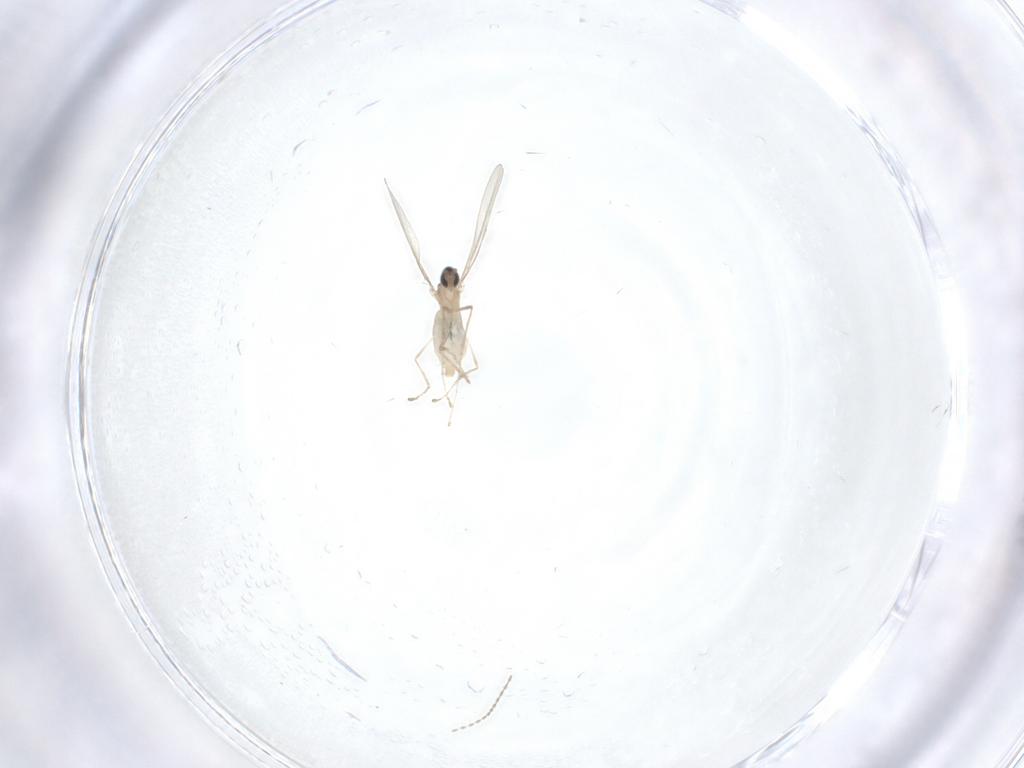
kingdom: Animalia
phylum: Arthropoda
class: Insecta
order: Diptera
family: Cecidomyiidae
